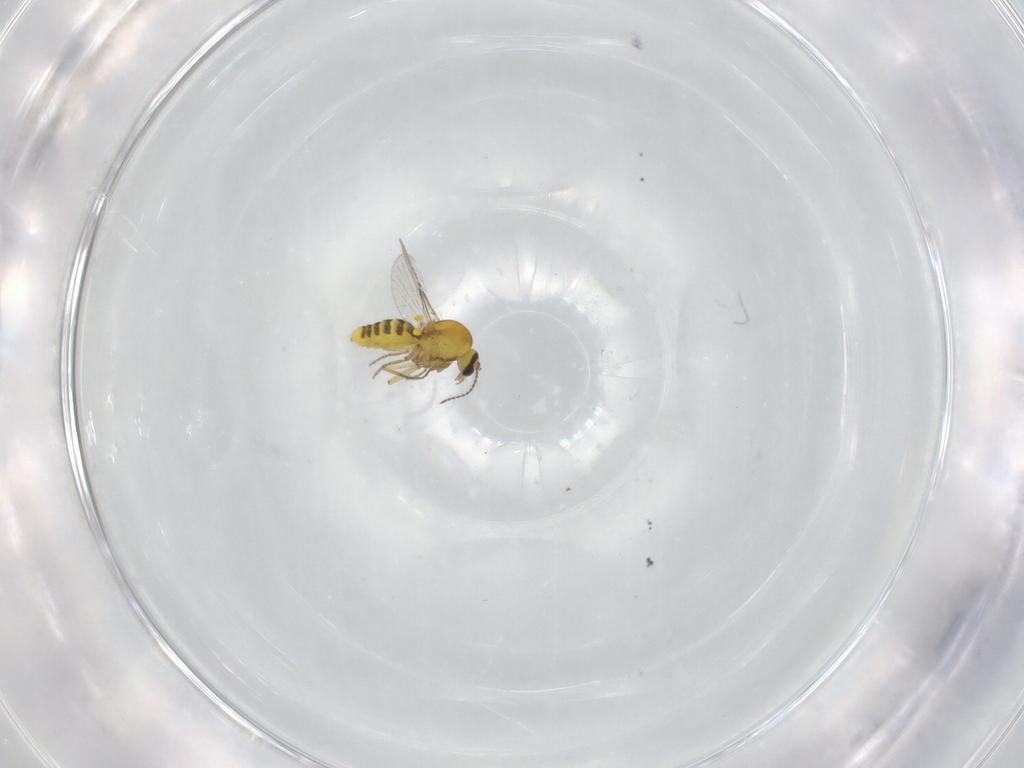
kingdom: Animalia
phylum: Arthropoda
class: Insecta
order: Diptera
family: Ceratopogonidae
